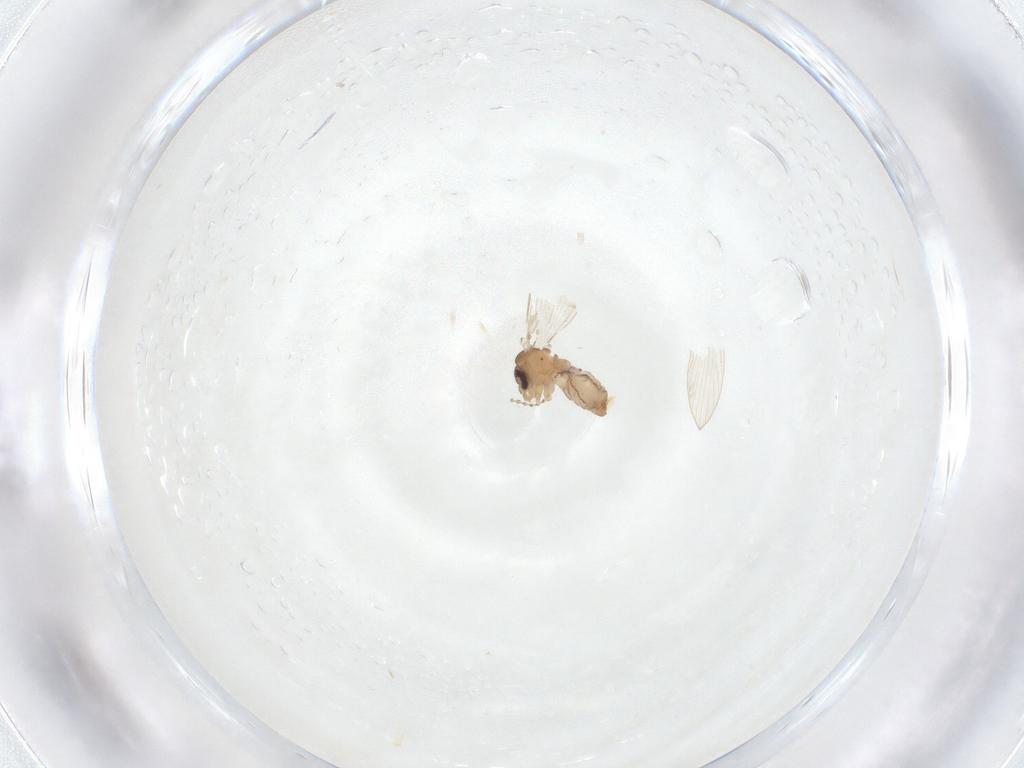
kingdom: Animalia
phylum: Arthropoda
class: Insecta
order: Diptera
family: Psychodidae
